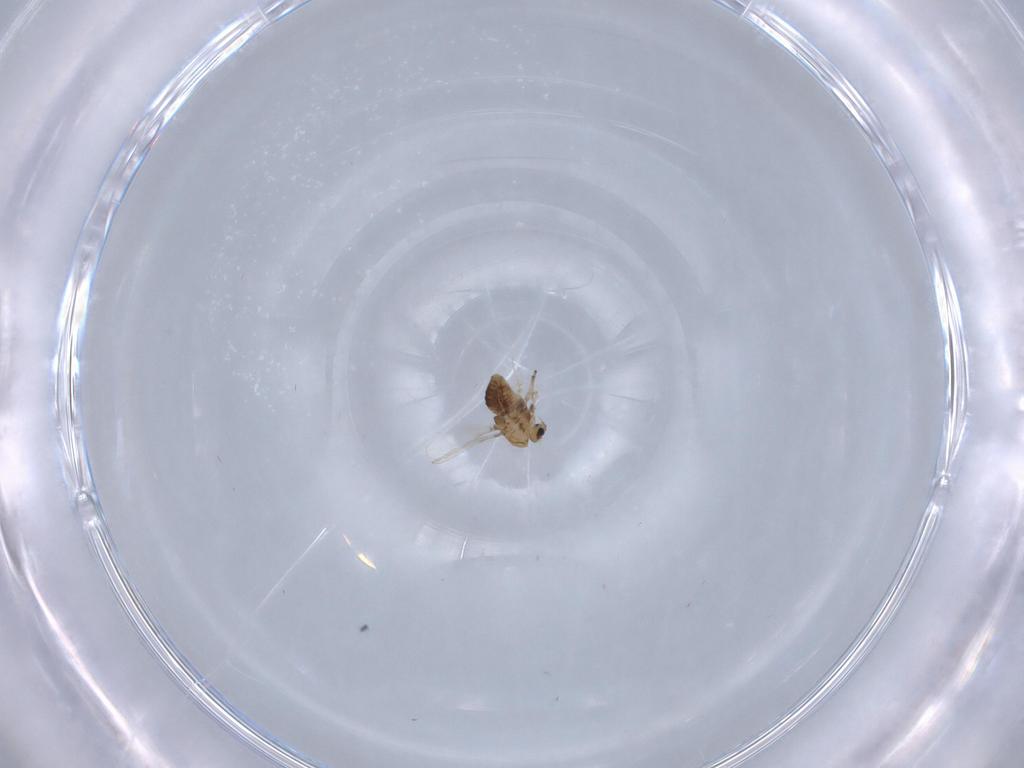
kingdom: Animalia
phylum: Arthropoda
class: Insecta
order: Diptera
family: Chironomidae
